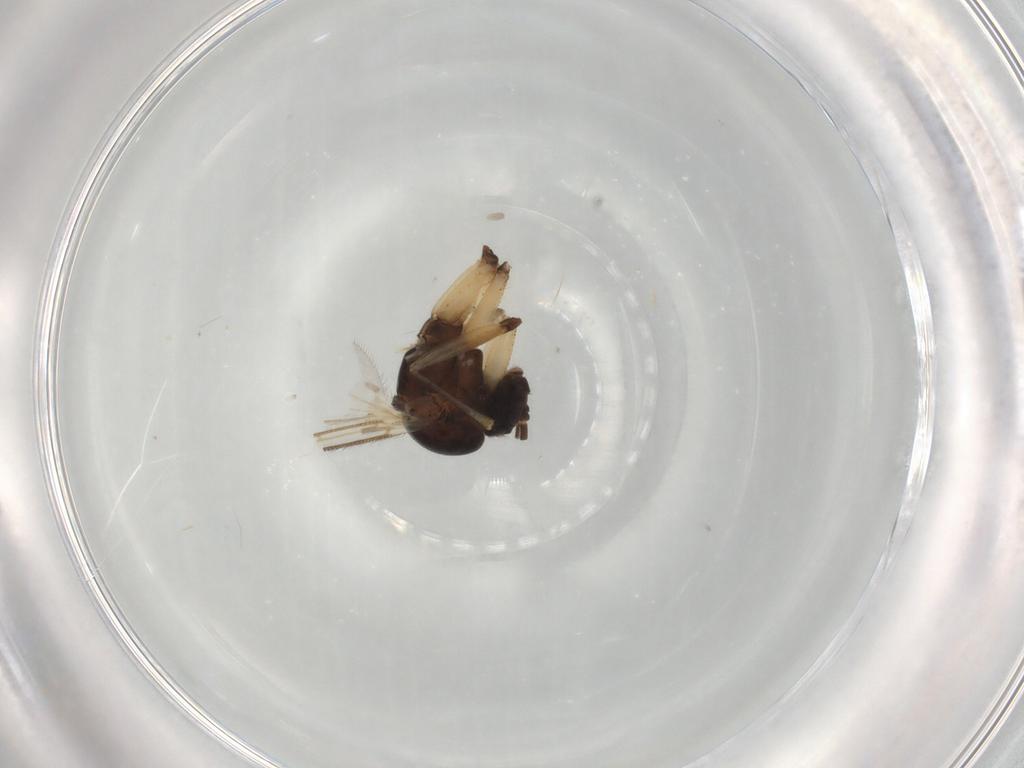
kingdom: Animalia
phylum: Arthropoda
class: Insecta
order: Diptera
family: Mycetophilidae
